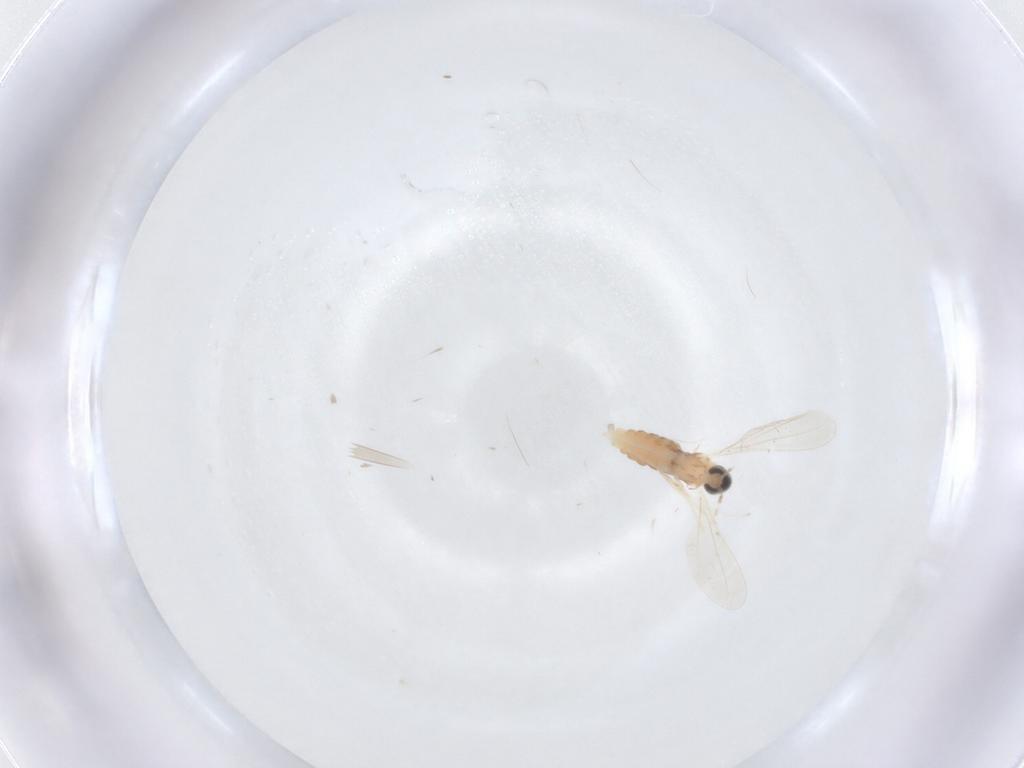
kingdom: Animalia
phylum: Arthropoda
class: Insecta
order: Diptera
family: Cecidomyiidae
